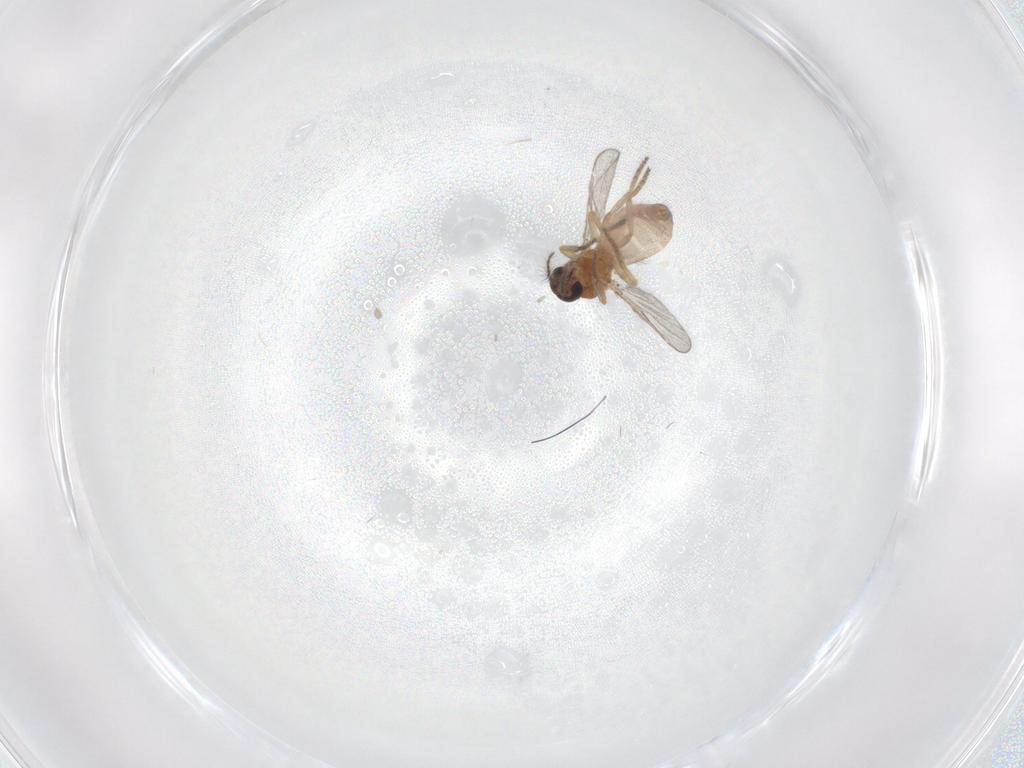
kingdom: Animalia
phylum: Arthropoda
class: Insecta
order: Diptera
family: Ceratopogonidae
